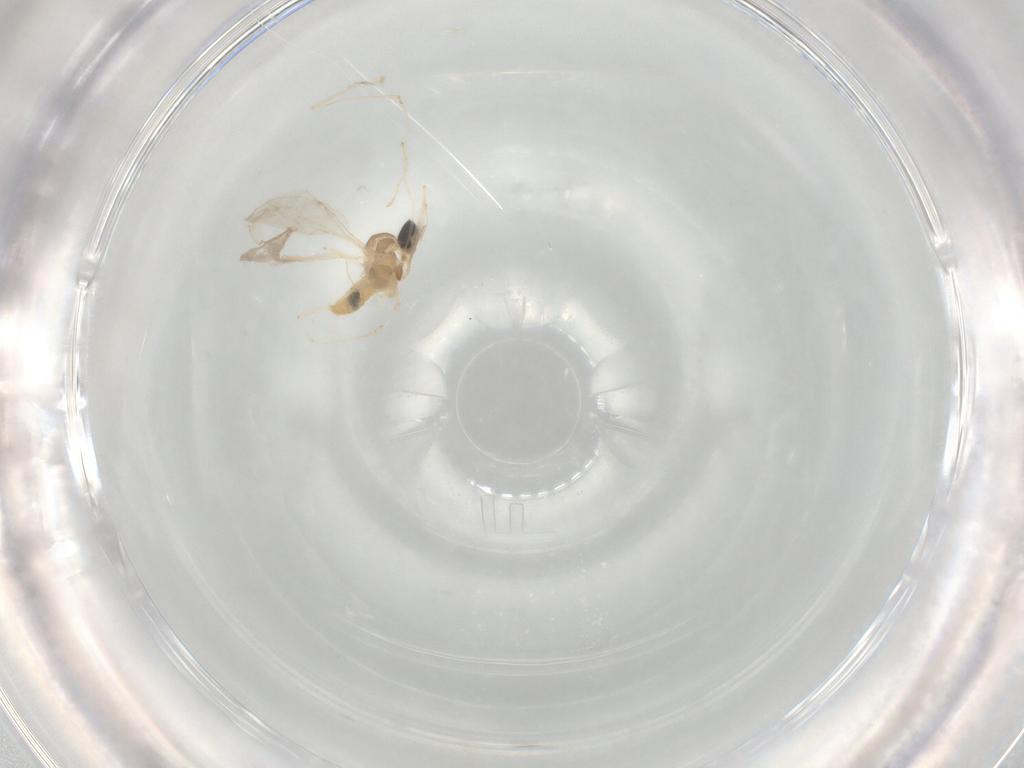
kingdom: Animalia
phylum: Arthropoda
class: Insecta
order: Diptera
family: Cecidomyiidae
